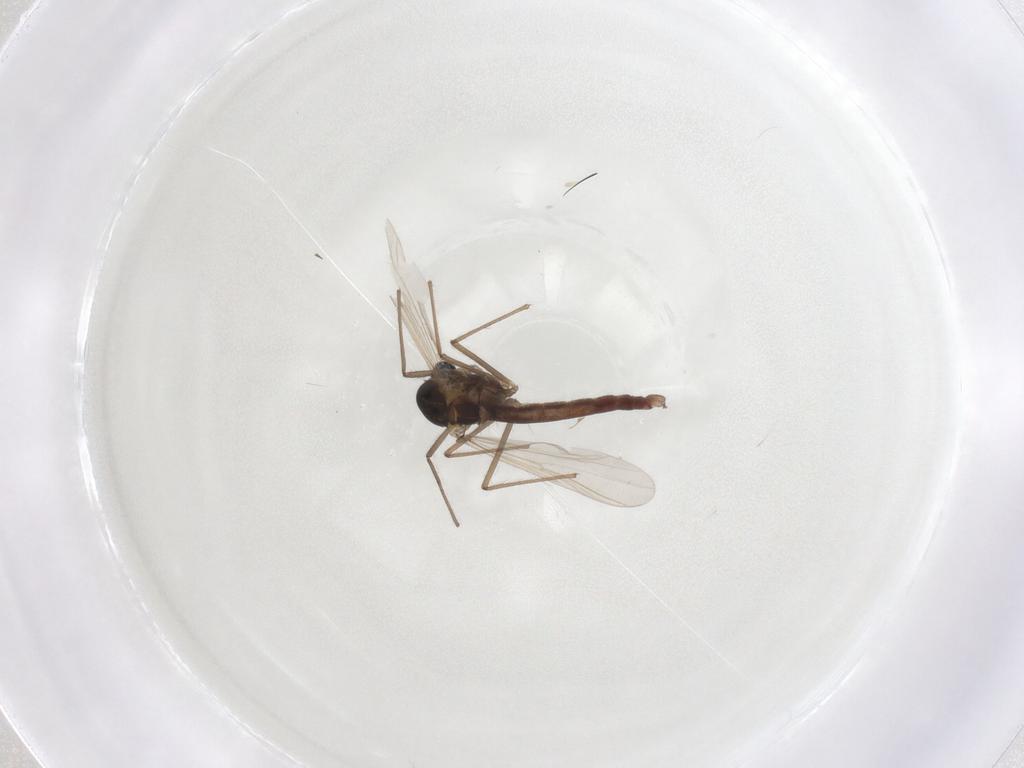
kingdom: Animalia
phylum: Arthropoda
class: Insecta
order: Diptera
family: Chironomidae
